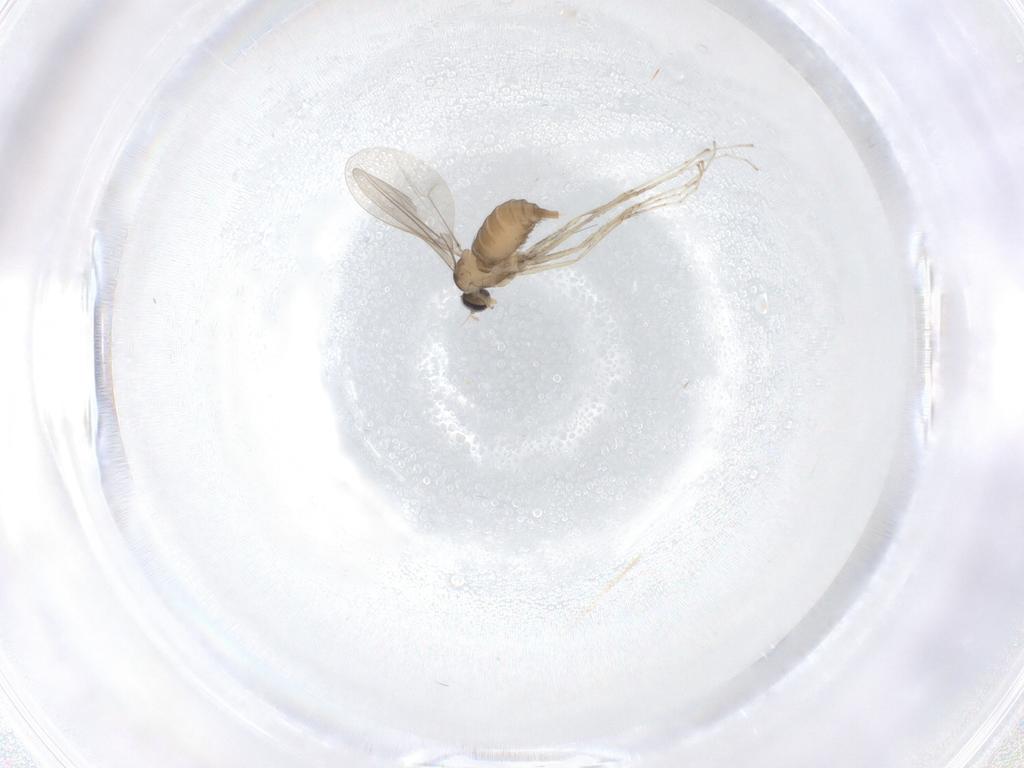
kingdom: Animalia
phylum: Arthropoda
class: Insecta
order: Diptera
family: Cecidomyiidae
